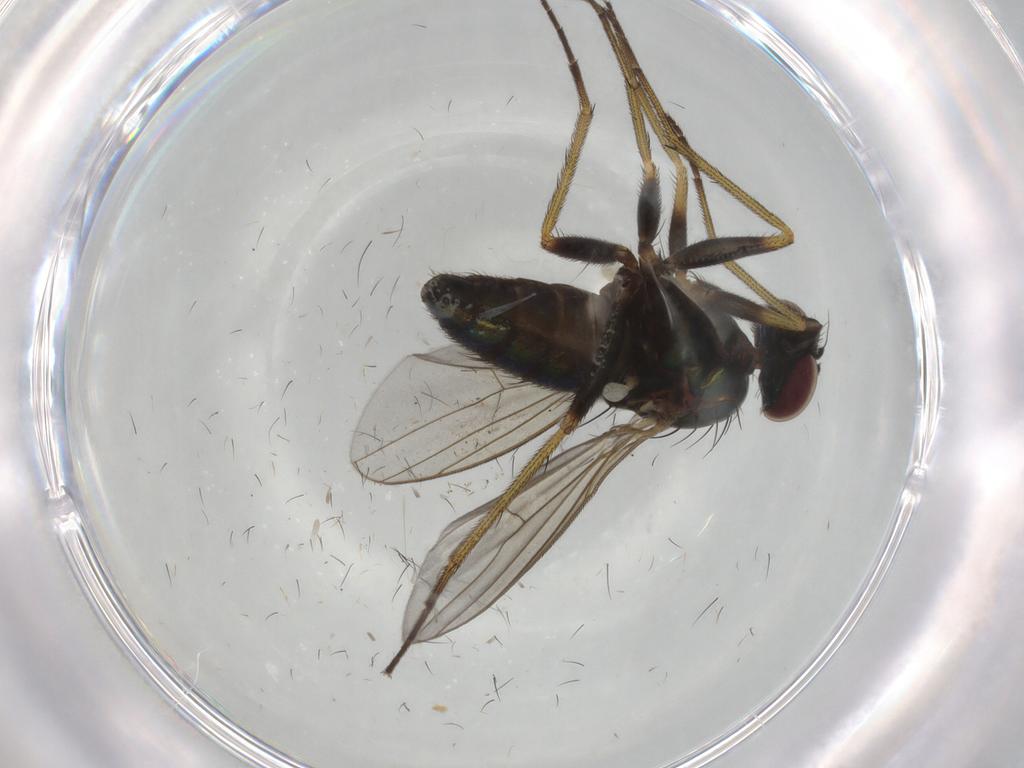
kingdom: Animalia
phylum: Arthropoda
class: Insecta
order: Diptera
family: Dolichopodidae
